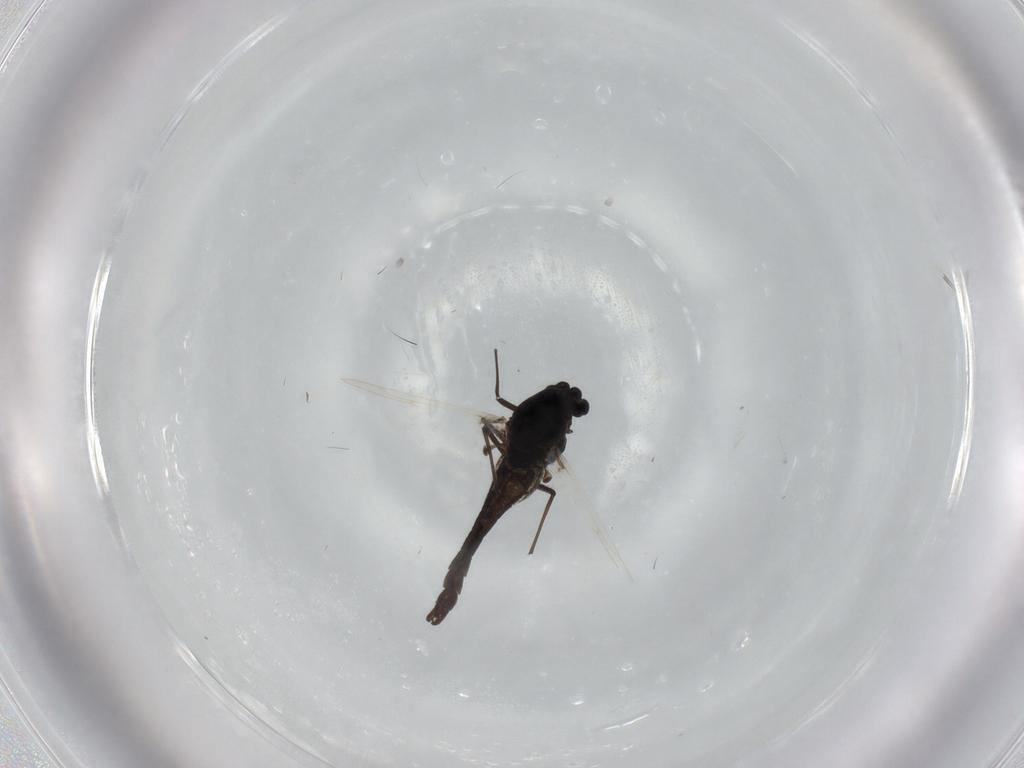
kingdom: Animalia
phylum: Arthropoda
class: Insecta
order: Diptera
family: Chironomidae
